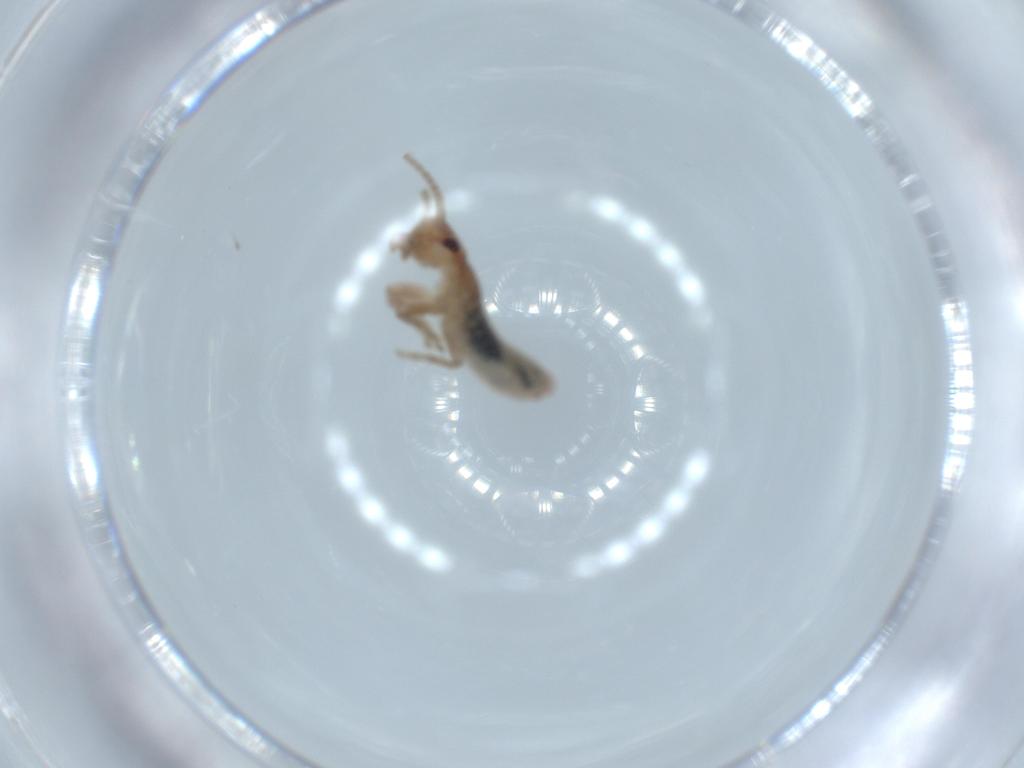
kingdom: Animalia
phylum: Arthropoda
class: Insecta
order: Orthoptera
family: Mogoplistidae
